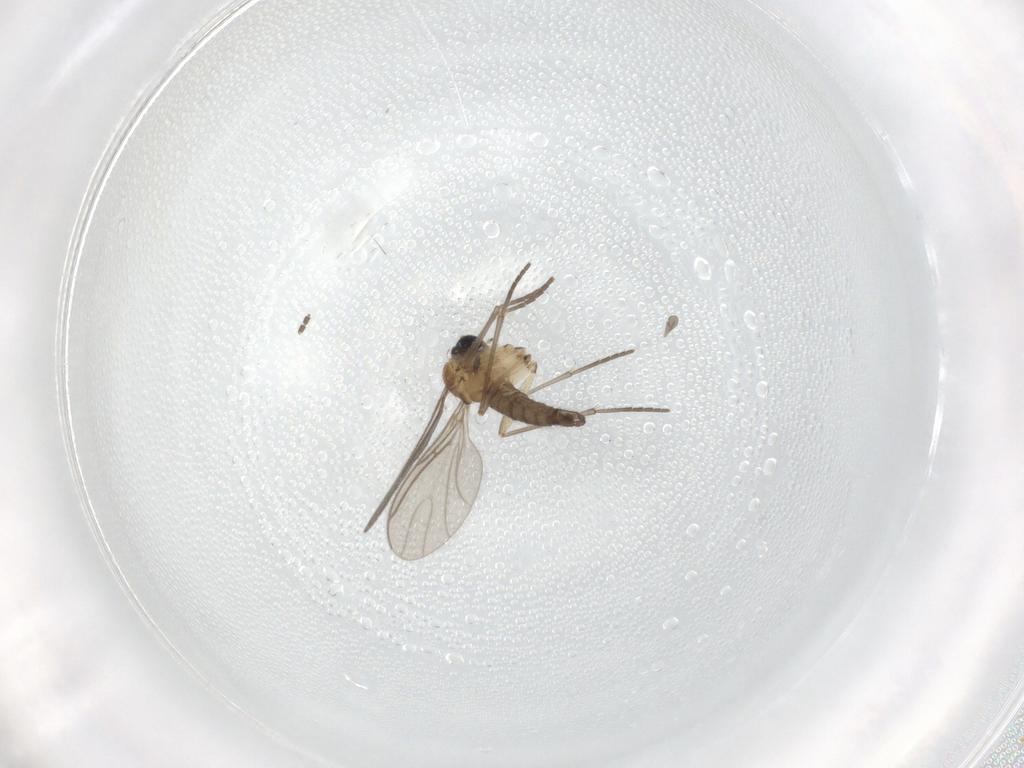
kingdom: Animalia
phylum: Arthropoda
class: Insecta
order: Diptera
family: Sciaridae
